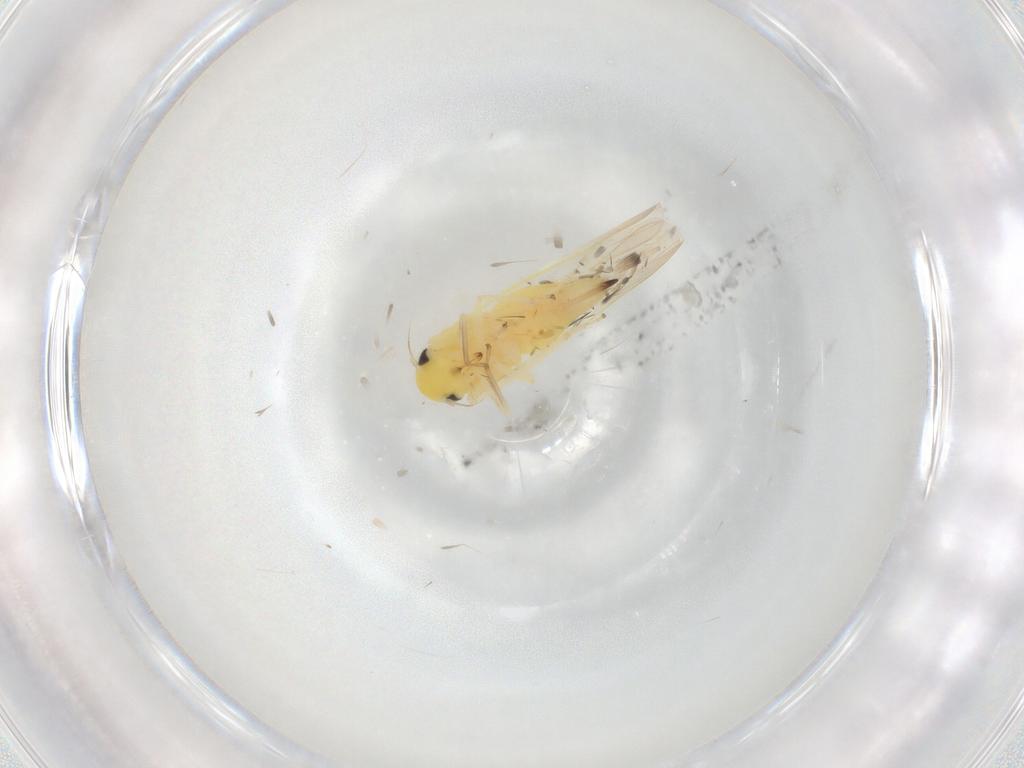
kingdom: Animalia
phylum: Arthropoda
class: Insecta
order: Hemiptera
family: Cicadellidae
